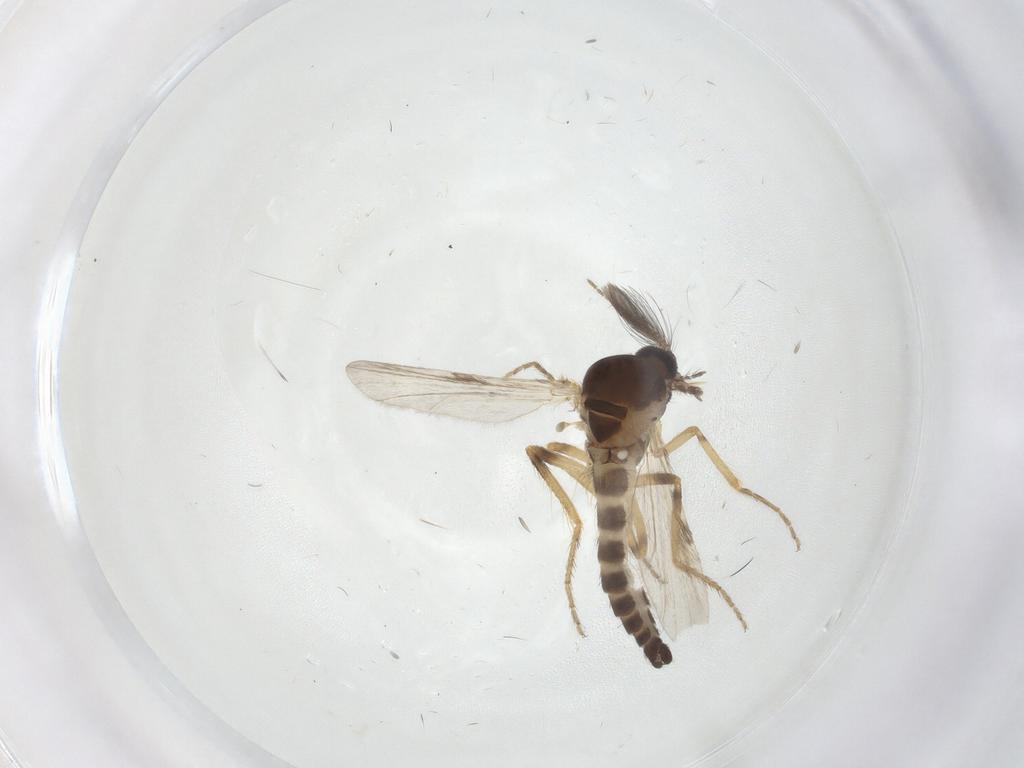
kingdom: Animalia
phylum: Arthropoda
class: Insecta
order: Diptera
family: Ceratopogonidae
